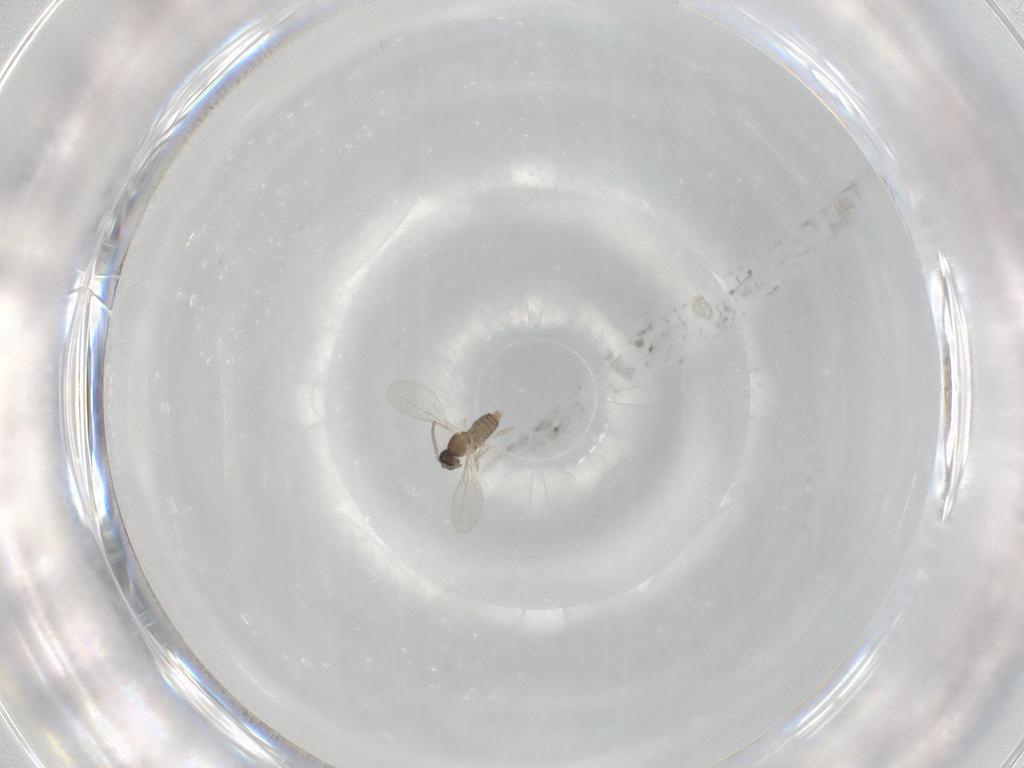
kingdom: Animalia
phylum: Arthropoda
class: Insecta
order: Diptera
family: Cecidomyiidae
